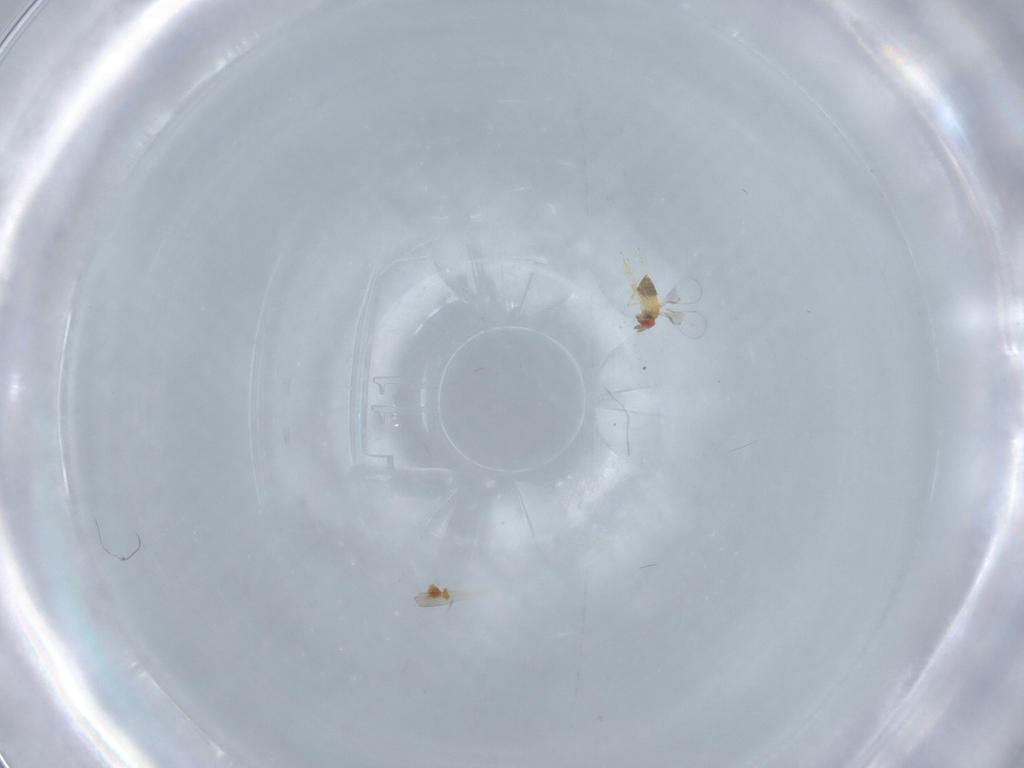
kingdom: Animalia
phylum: Arthropoda
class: Insecta
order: Hymenoptera
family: Trichogrammatidae
